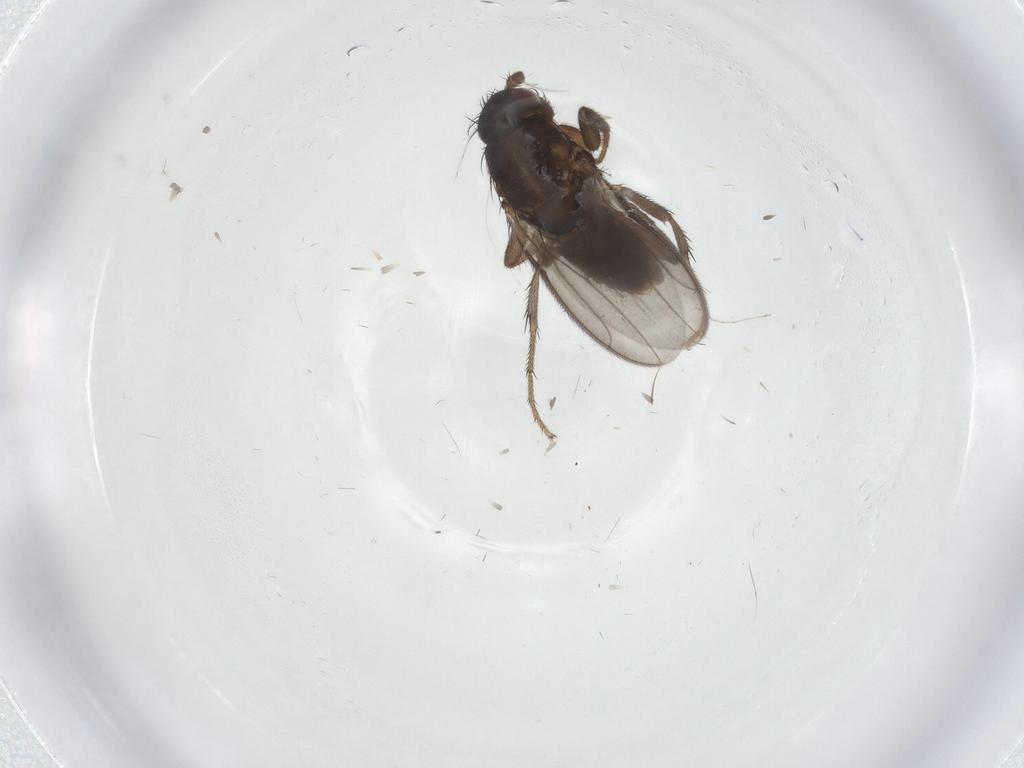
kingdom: Animalia
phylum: Arthropoda
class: Insecta
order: Diptera
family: Sphaeroceridae
